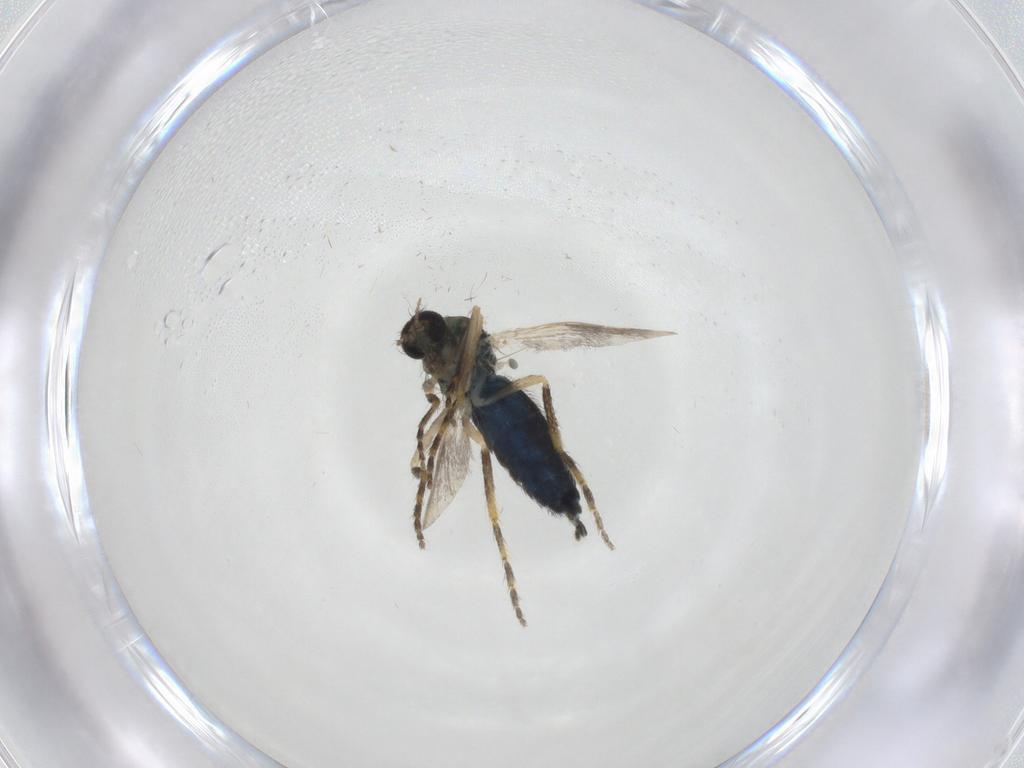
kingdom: Animalia
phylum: Arthropoda
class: Insecta
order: Diptera
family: Ceratopogonidae
